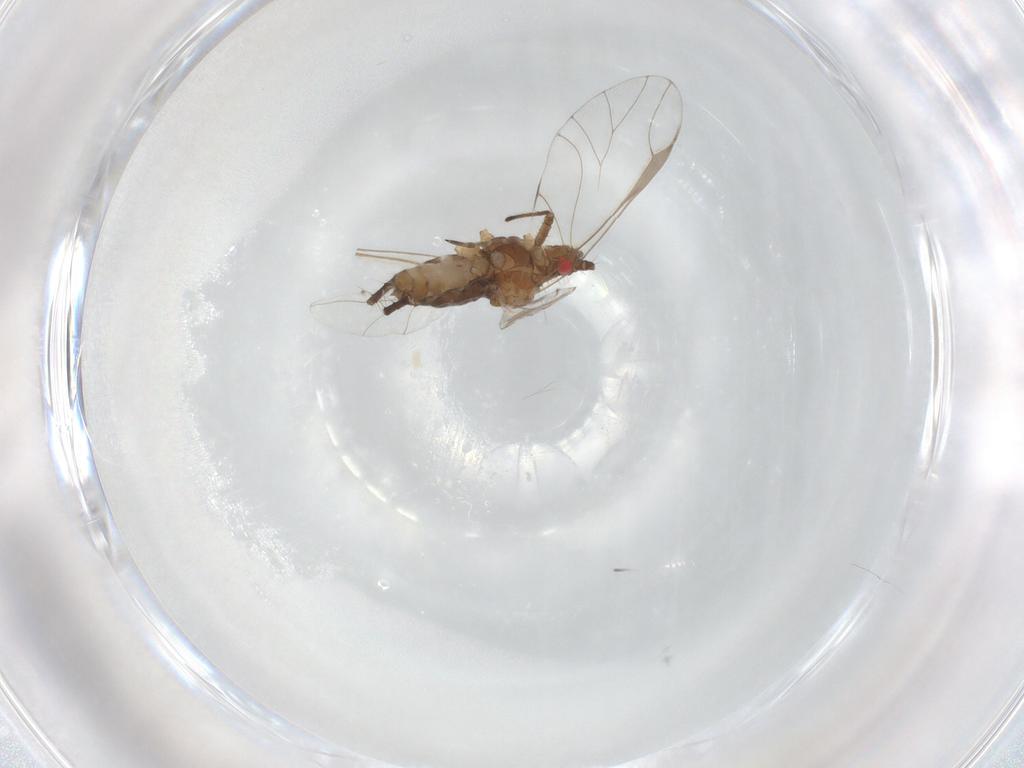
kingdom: Animalia
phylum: Arthropoda
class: Insecta
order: Hemiptera
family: Aphididae
